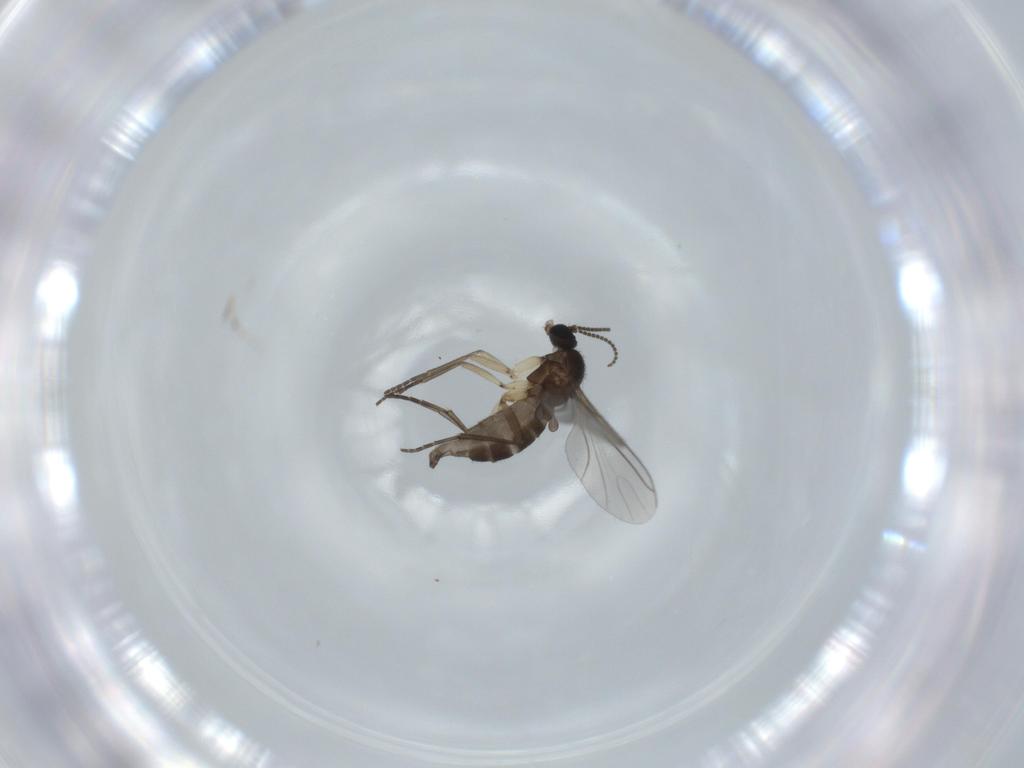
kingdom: Animalia
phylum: Arthropoda
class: Insecta
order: Diptera
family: Sciaridae
